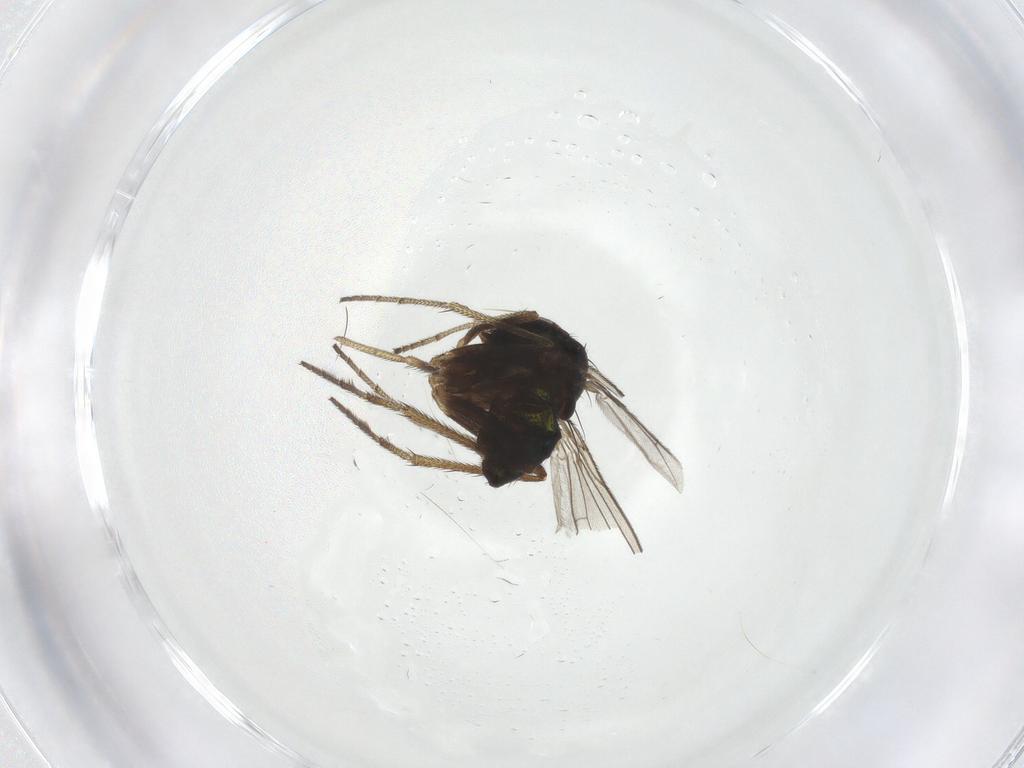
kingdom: Animalia
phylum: Arthropoda
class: Insecta
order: Diptera
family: Dolichopodidae
